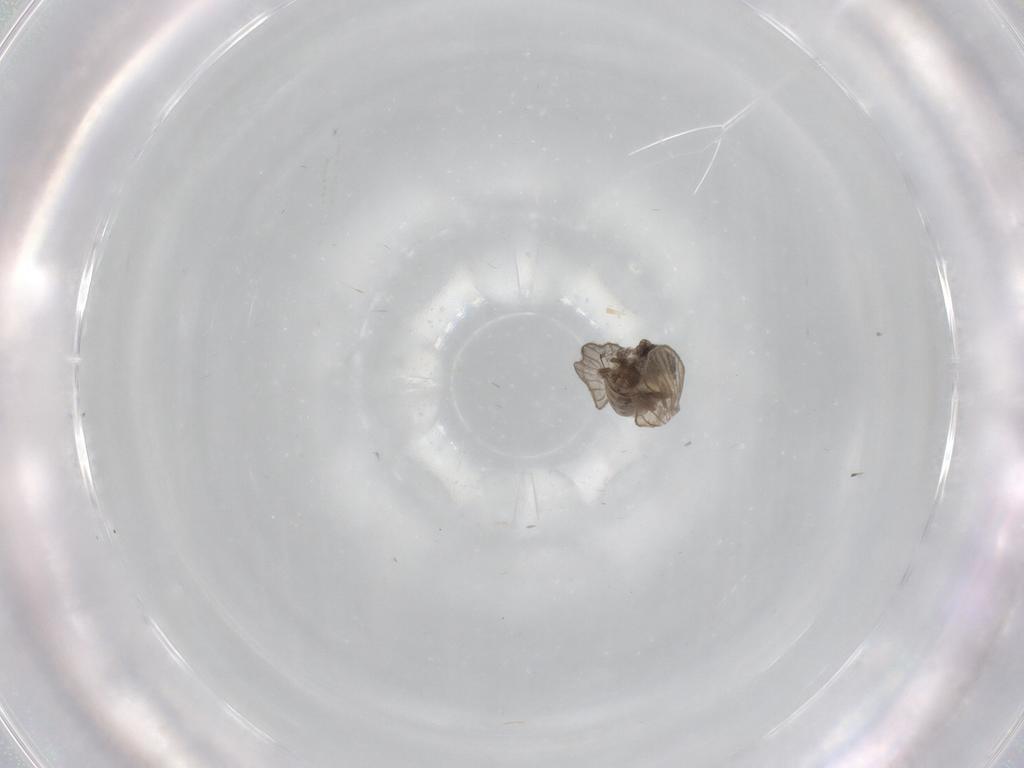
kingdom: Animalia
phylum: Arthropoda
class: Insecta
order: Diptera
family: Psychodidae
